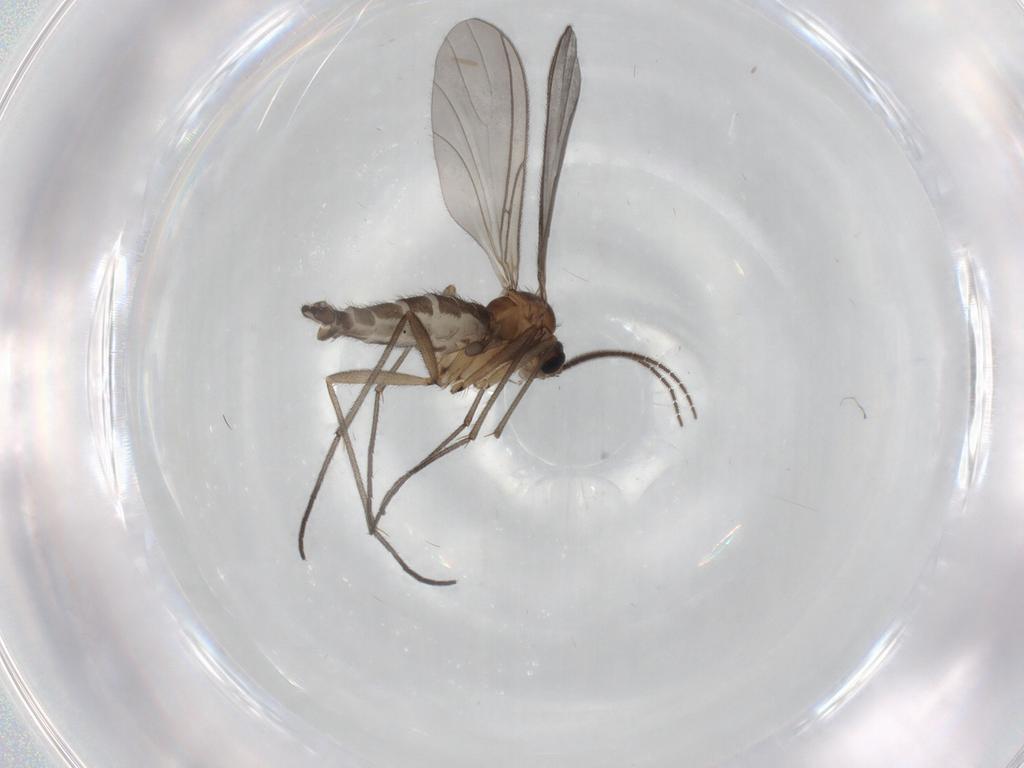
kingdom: Animalia
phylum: Arthropoda
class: Insecta
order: Diptera
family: Sciaridae
